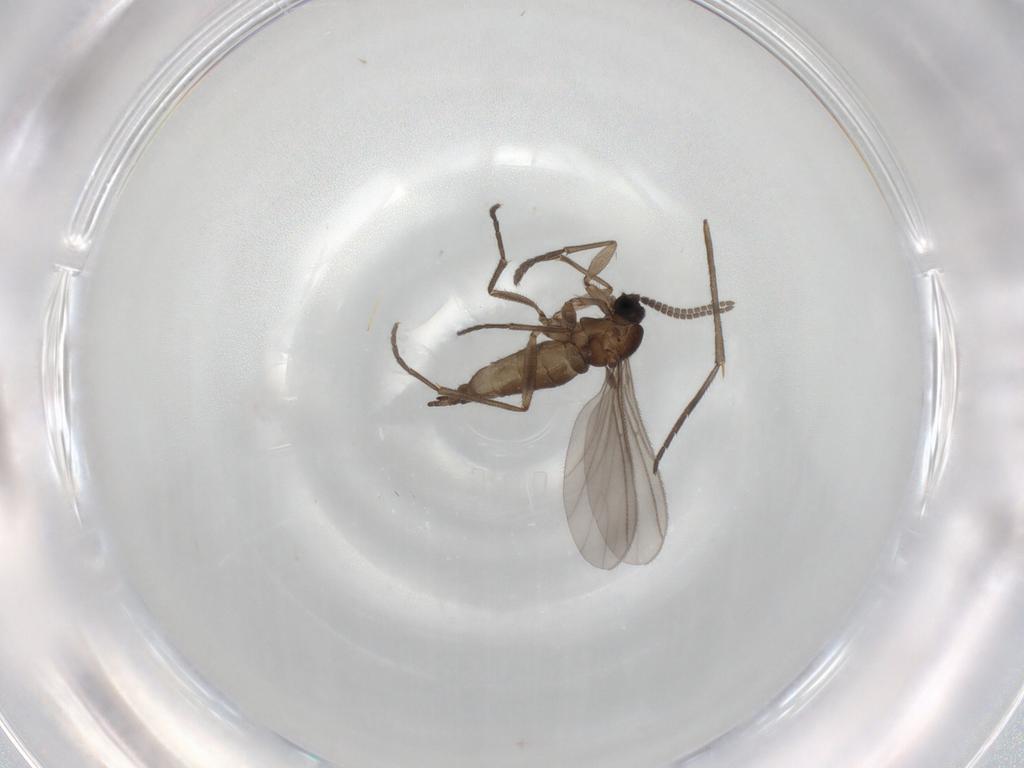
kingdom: Animalia
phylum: Arthropoda
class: Insecta
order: Diptera
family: Sciaridae
